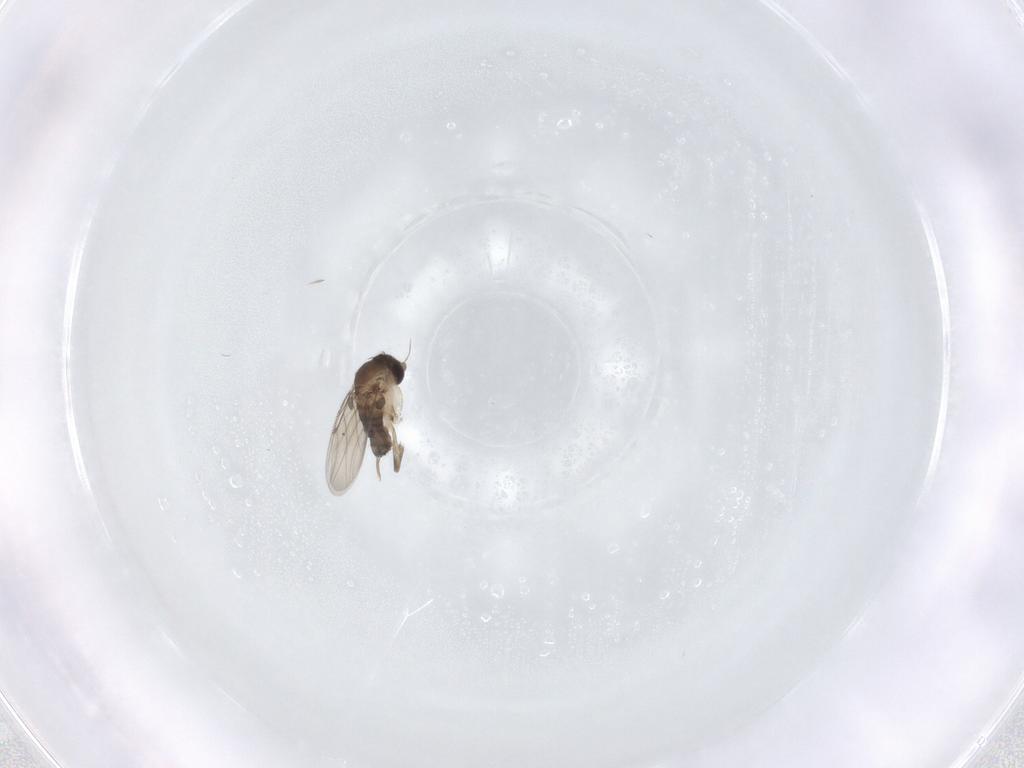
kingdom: Animalia
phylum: Arthropoda
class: Insecta
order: Diptera
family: Phoridae
